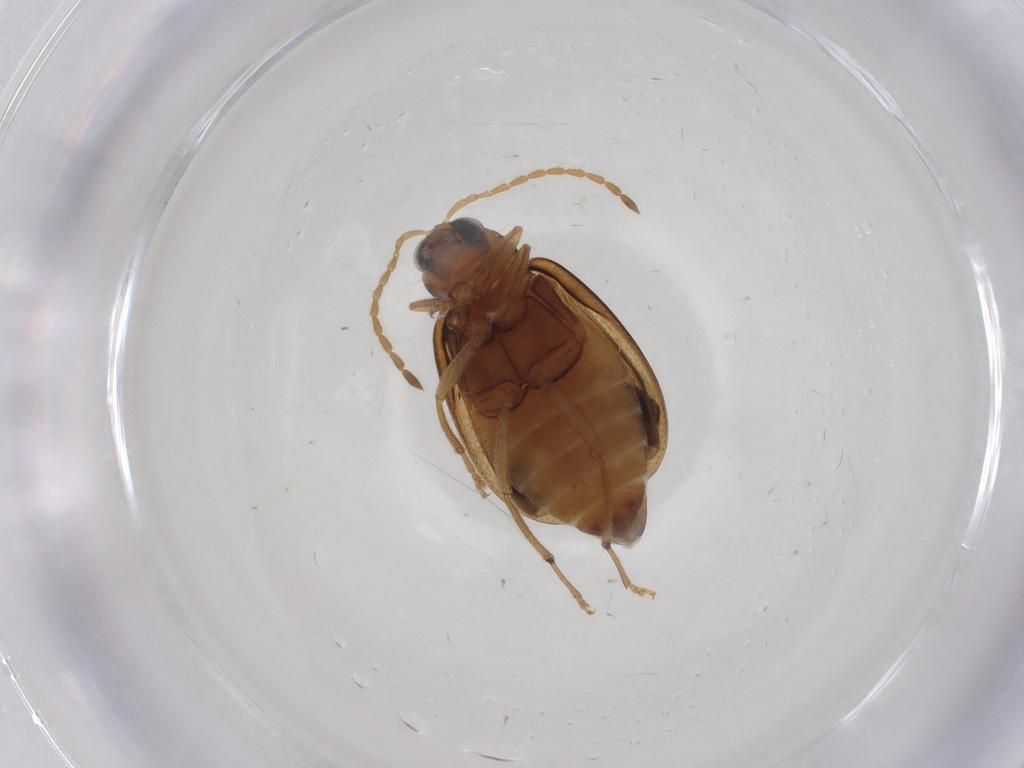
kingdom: Animalia
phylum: Arthropoda
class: Insecta
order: Coleoptera
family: Chrysomelidae
